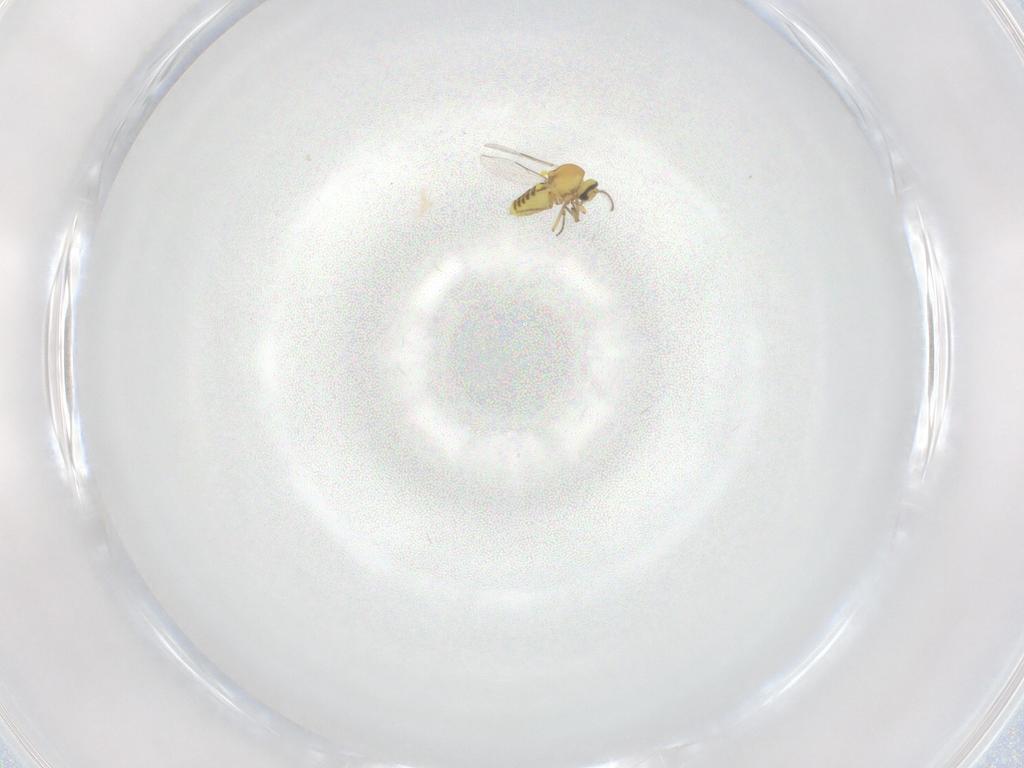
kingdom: Animalia
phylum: Arthropoda
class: Insecta
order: Diptera
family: Ceratopogonidae
